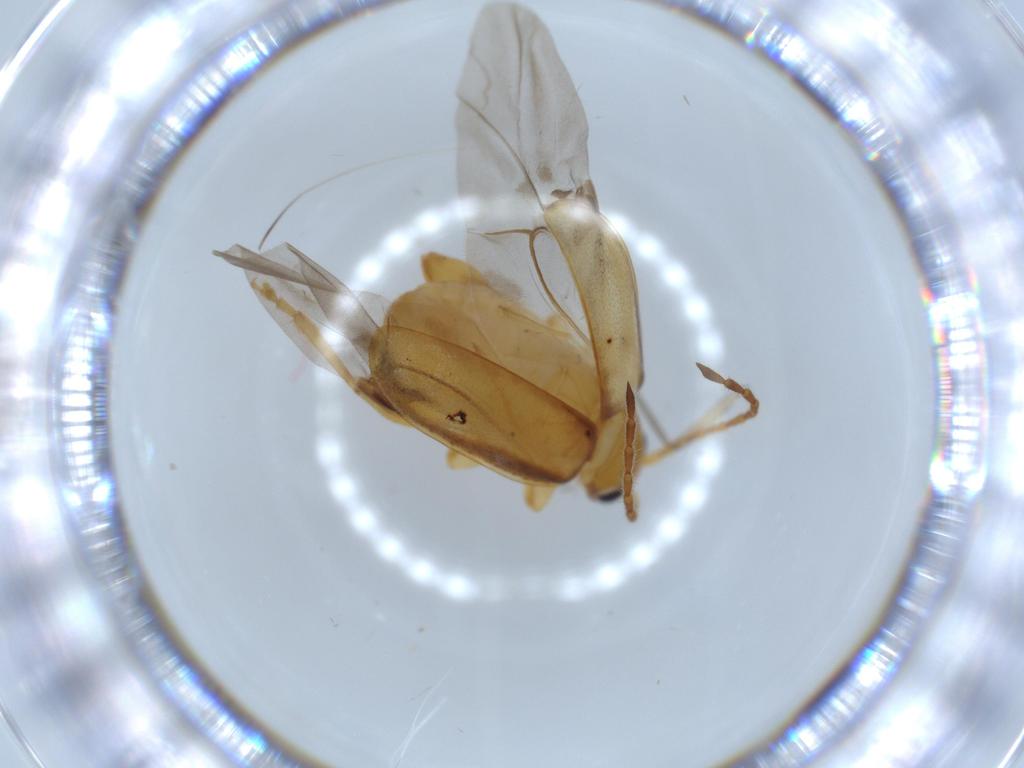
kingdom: Animalia
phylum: Arthropoda
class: Insecta
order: Coleoptera
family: Chrysomelidae
